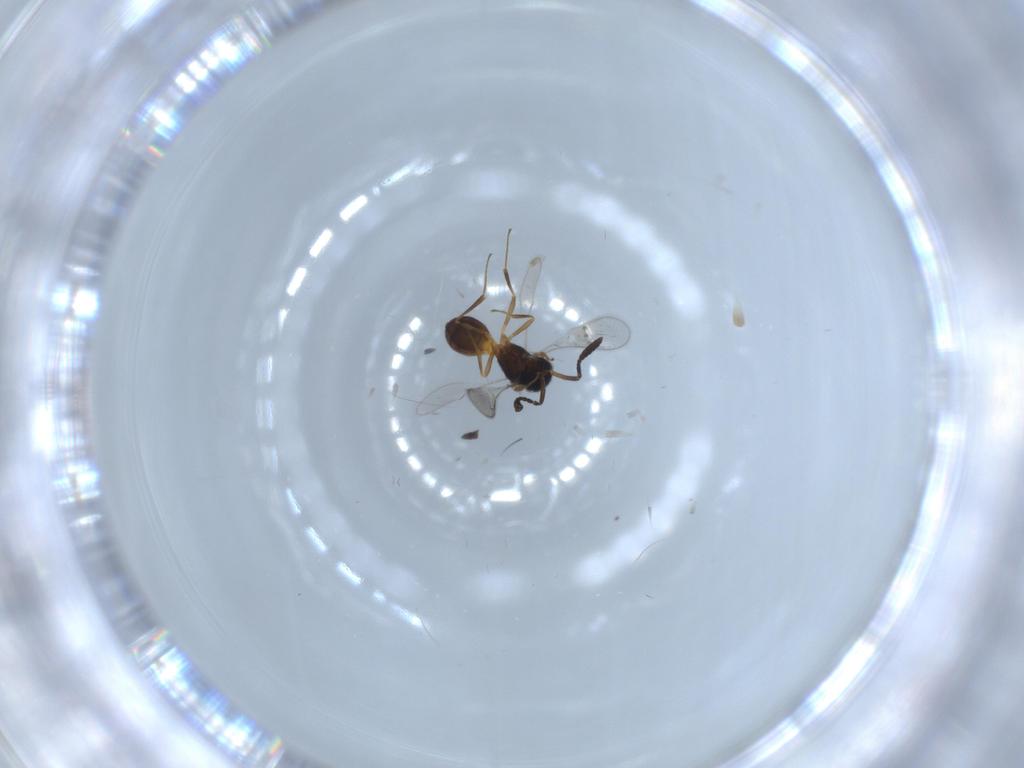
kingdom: Animalia
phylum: Arthropoda
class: Insecta
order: Hymenoptera
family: Scelionidae
